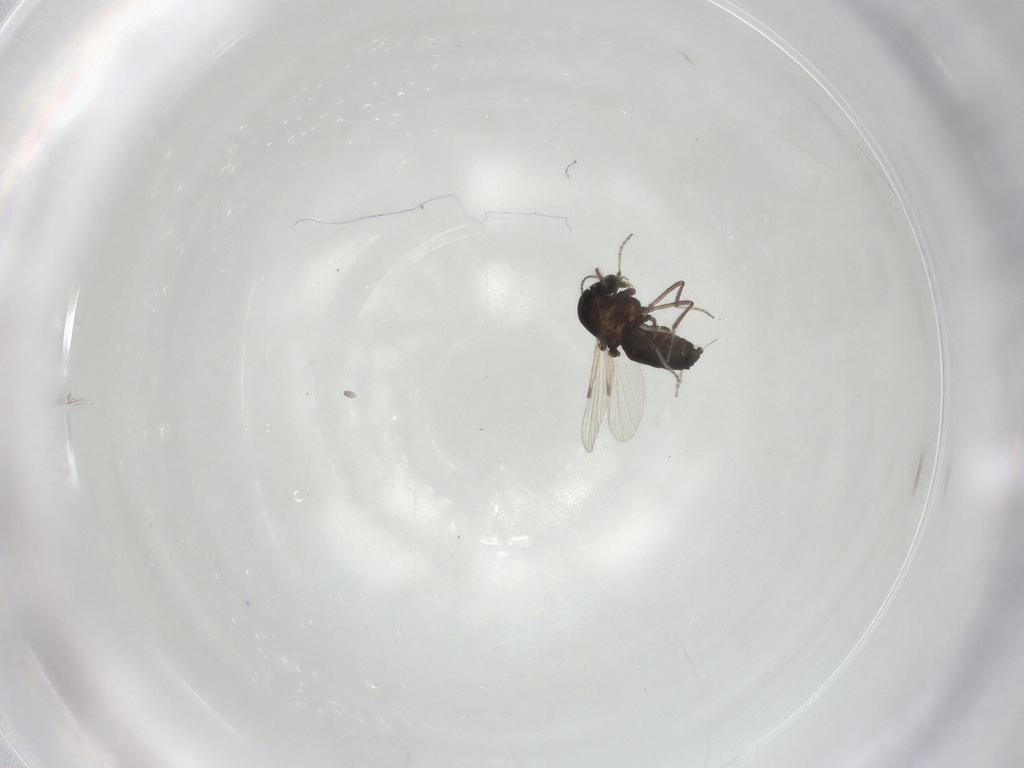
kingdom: Animalia
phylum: Arthropoda
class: Insecta
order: Diptera
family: Ceratopogonidae
